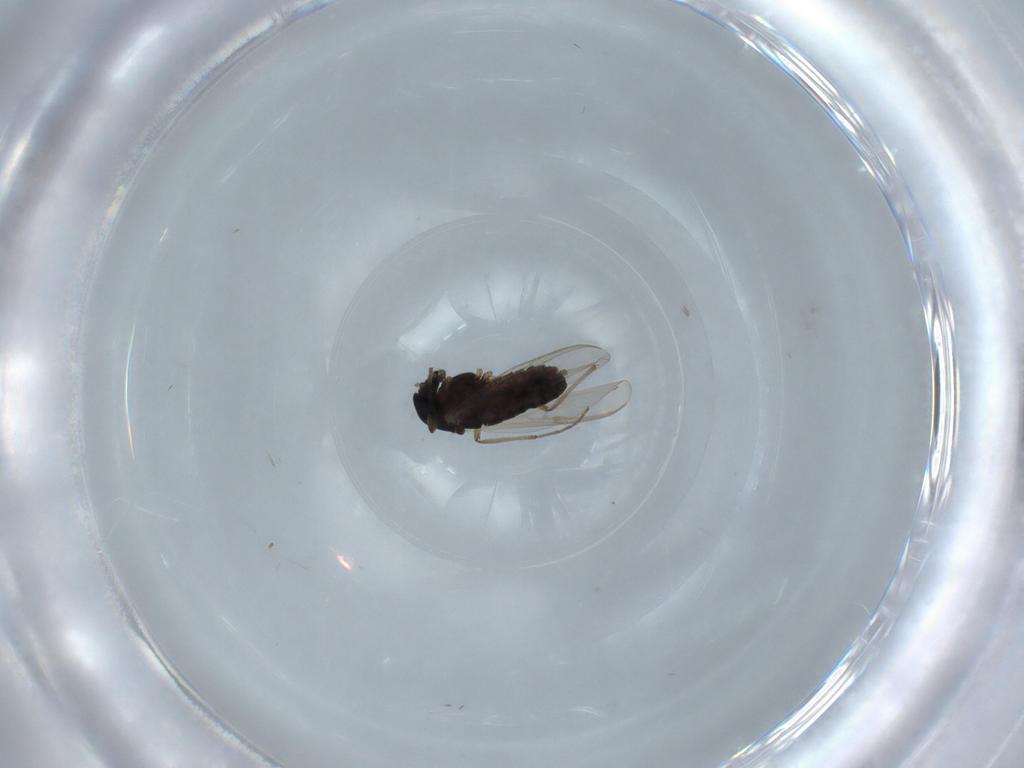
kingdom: Animalia
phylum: Arthropoda
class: Insecta
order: Diptera
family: Chironomidae
